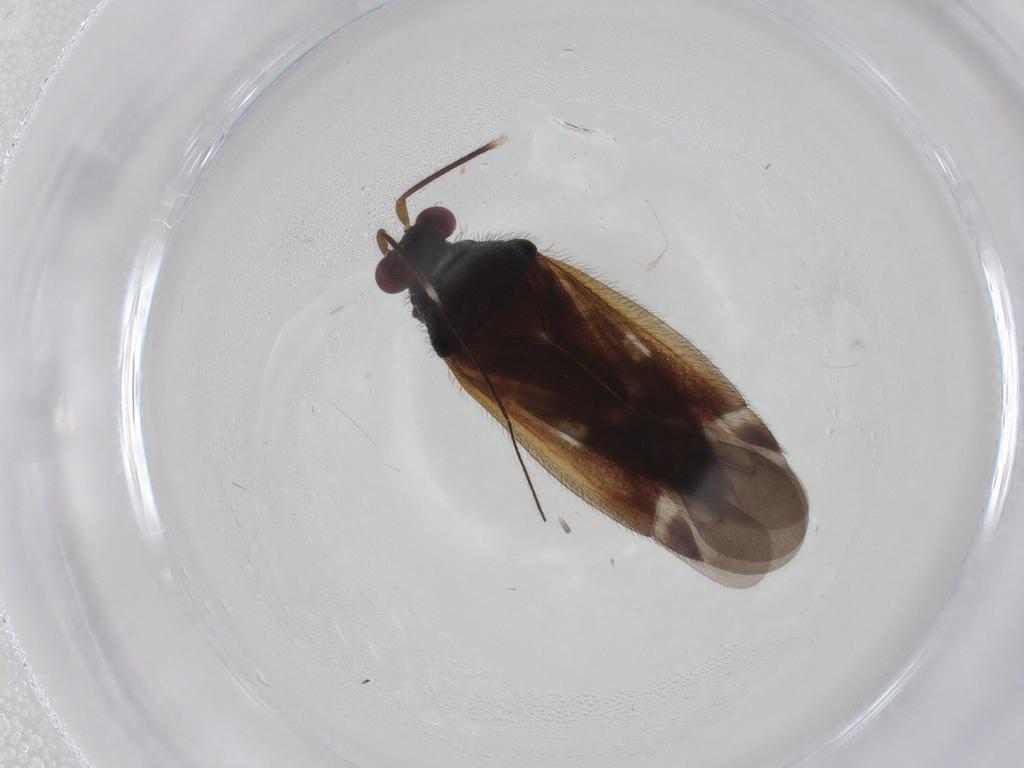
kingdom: Animalia
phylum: Arthropoda
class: Insecta
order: Hemiptera
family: Miridae
